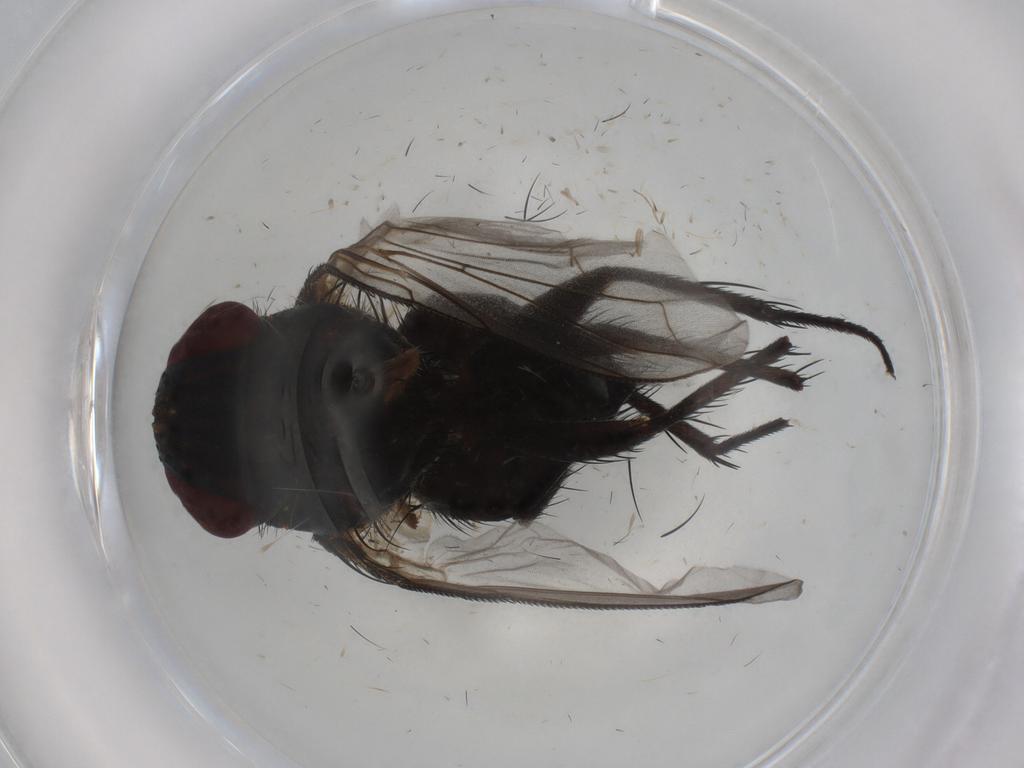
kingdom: Animalia
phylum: Arthropoda
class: Insecta
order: Diptera
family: Tachinidae
